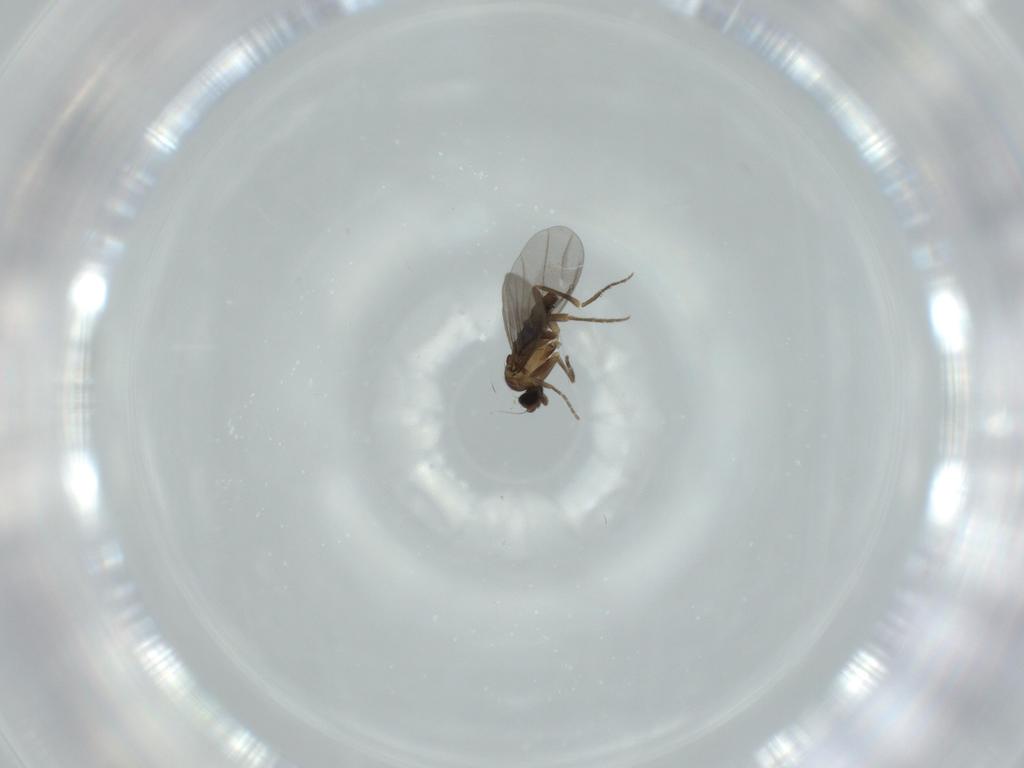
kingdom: Animalia
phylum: Arthropoda
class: Insecta
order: Diptera
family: Phoridae
